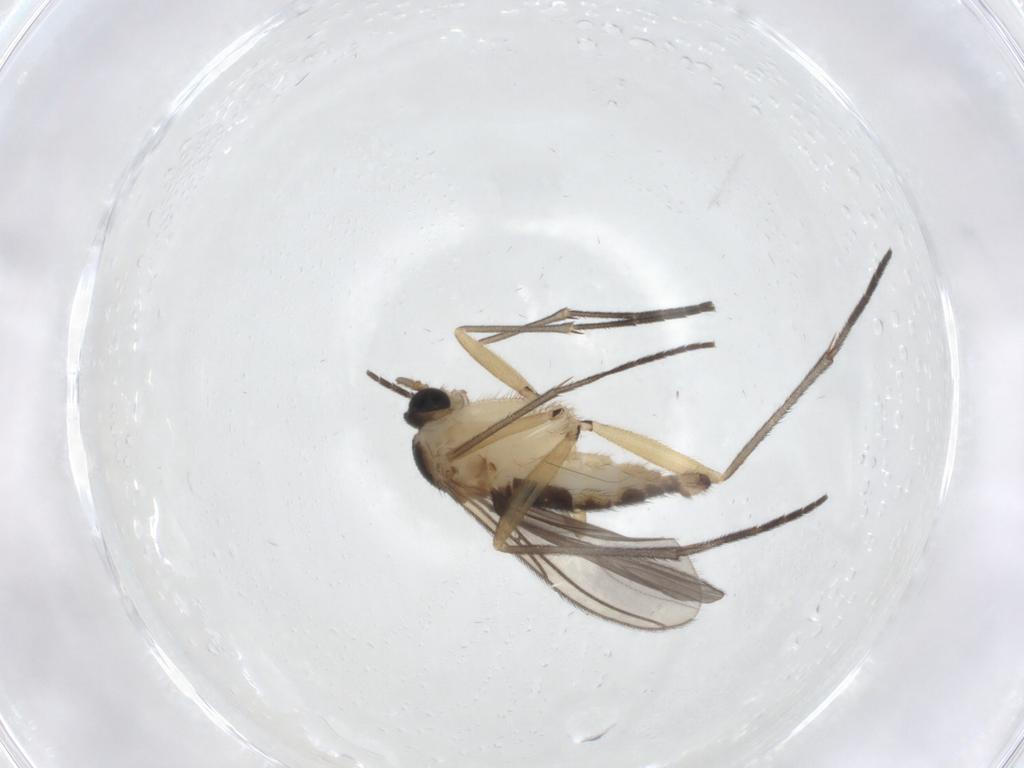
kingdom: Animalia
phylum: Arthropoda
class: Insecta
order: Diptera
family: Sciaridae
